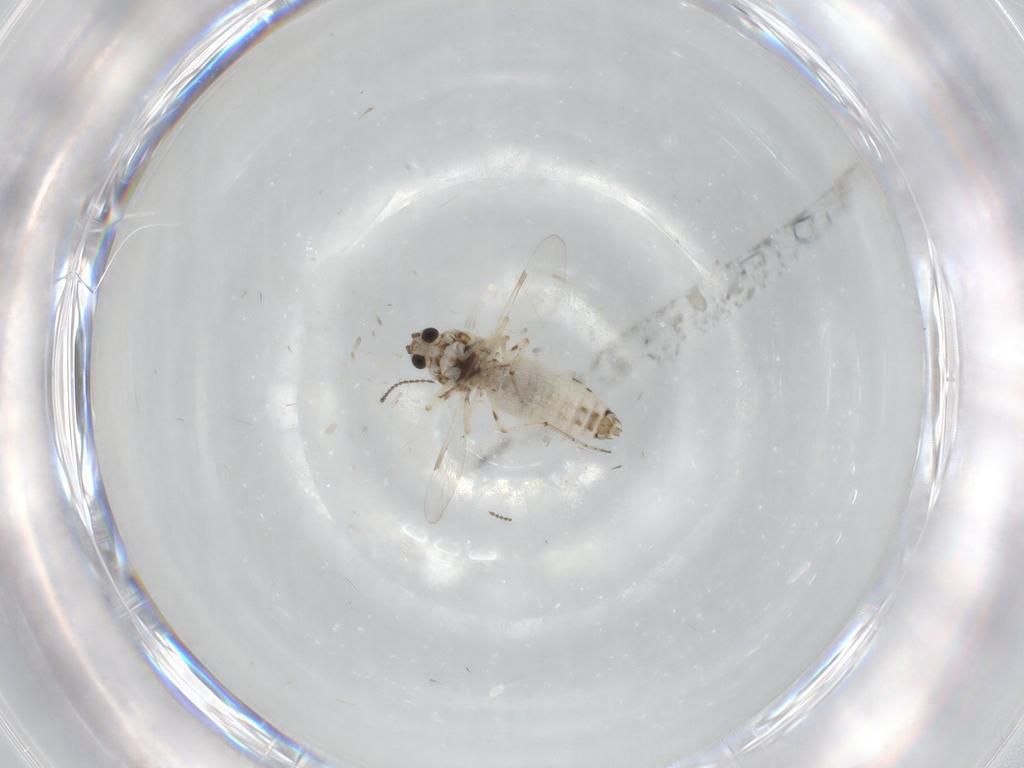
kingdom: Animalia
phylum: Arthropoda
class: Insecta
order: Diptera
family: Ceratopogonidae
